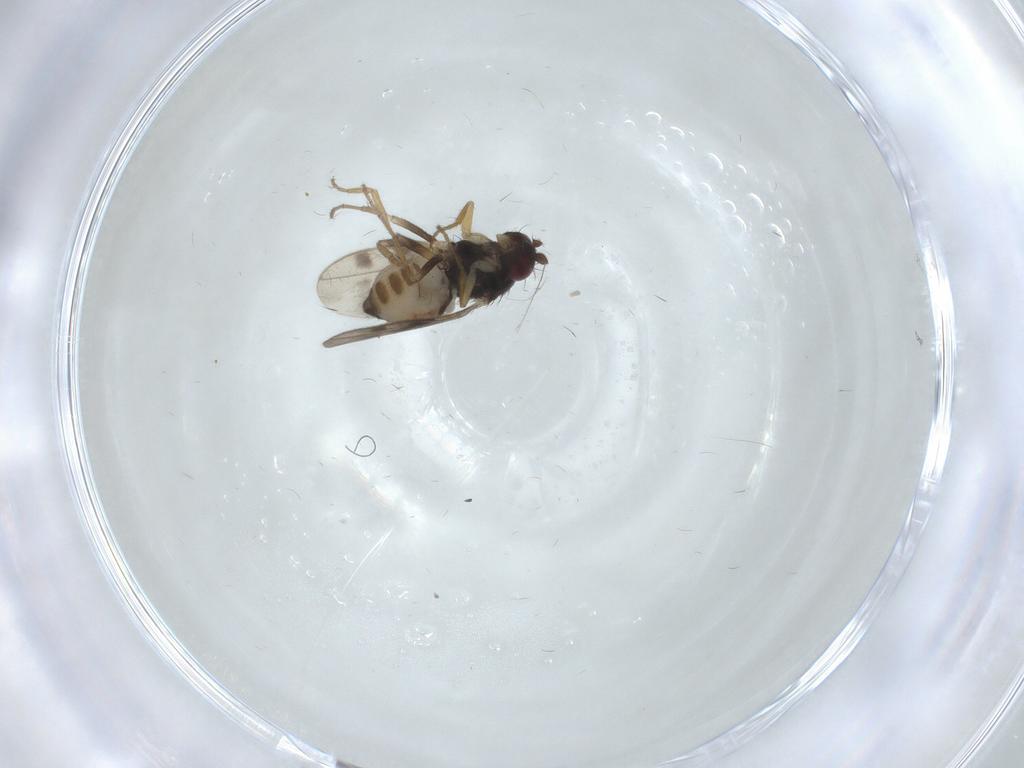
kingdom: Animalia
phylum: Arthropoda
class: Insecta
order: Diptera
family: Sphaeroceridae
